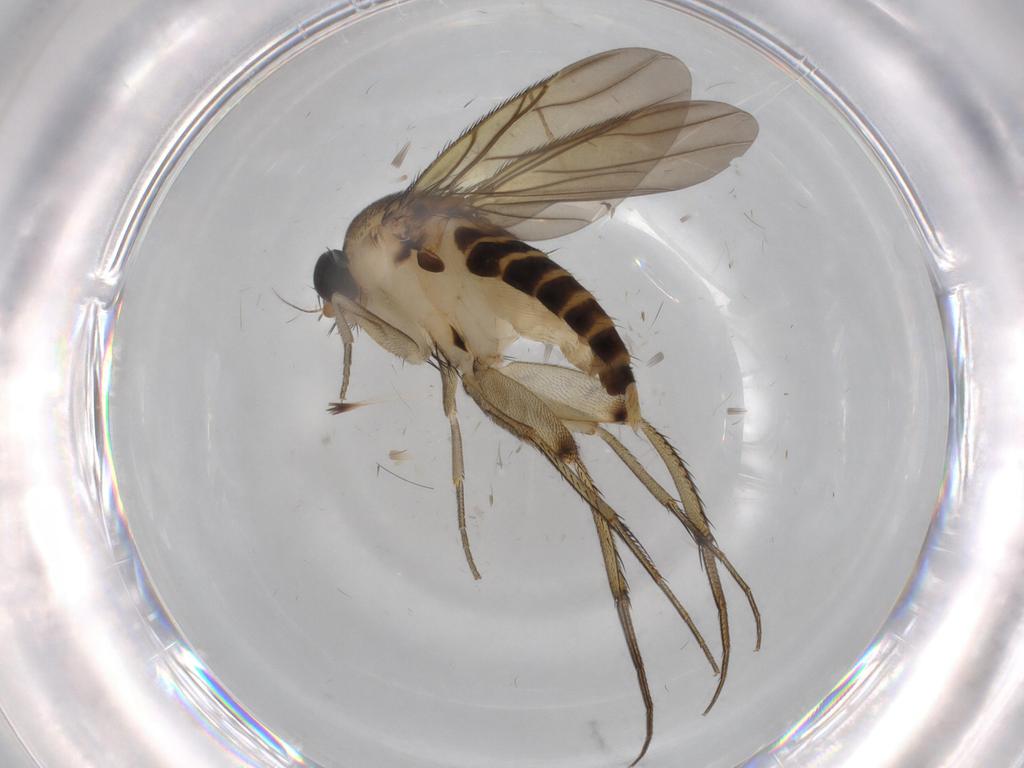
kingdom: Animalia
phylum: Arthropoda
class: Insecta
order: Diptera
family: Phoridae
